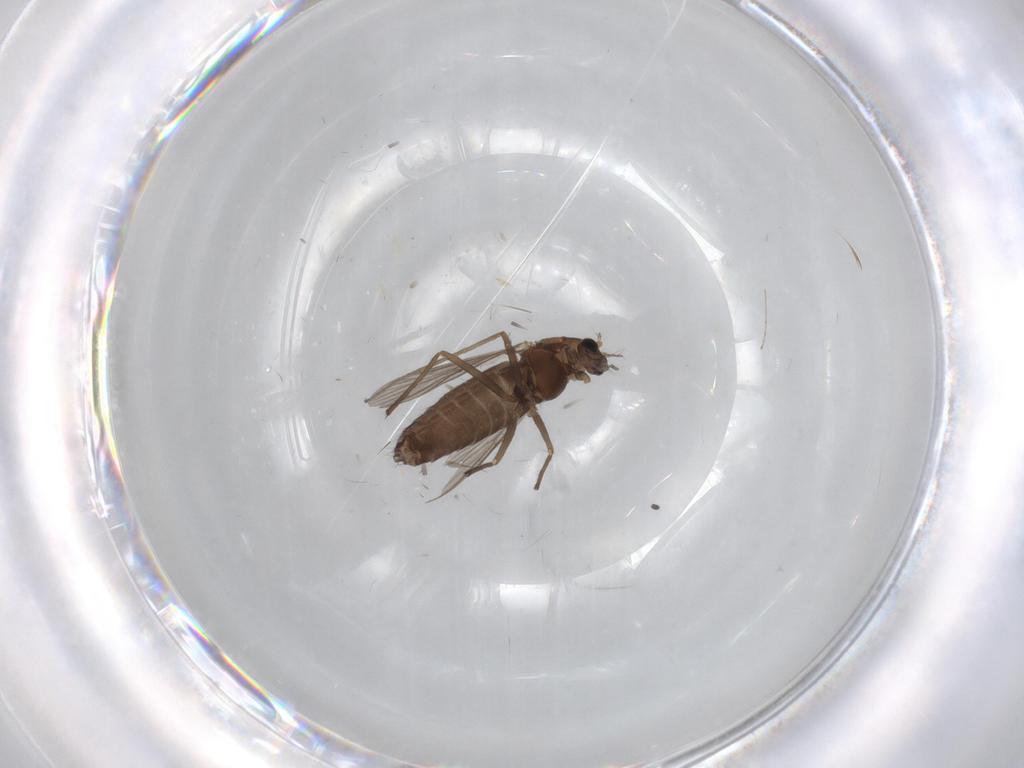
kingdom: Animalia
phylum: Arthropoda
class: Insecta
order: Diptera
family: Chironomidae
